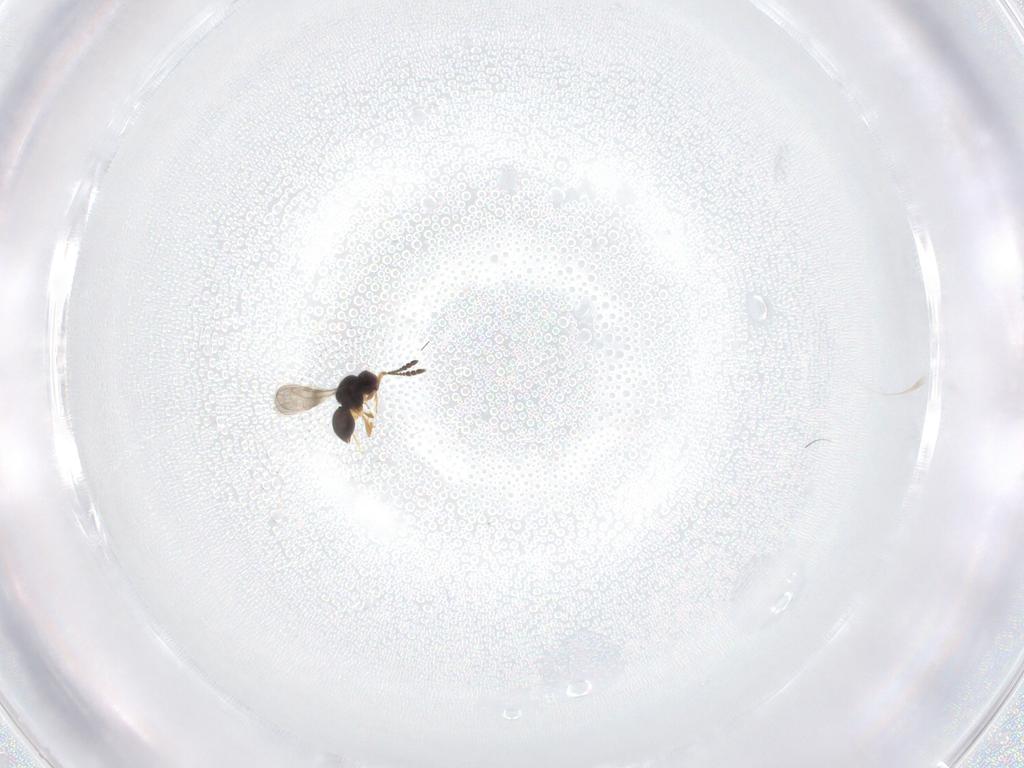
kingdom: Animalia
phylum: Arthropoda
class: Insecta
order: Hymenoptera
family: Ceraphronidae
